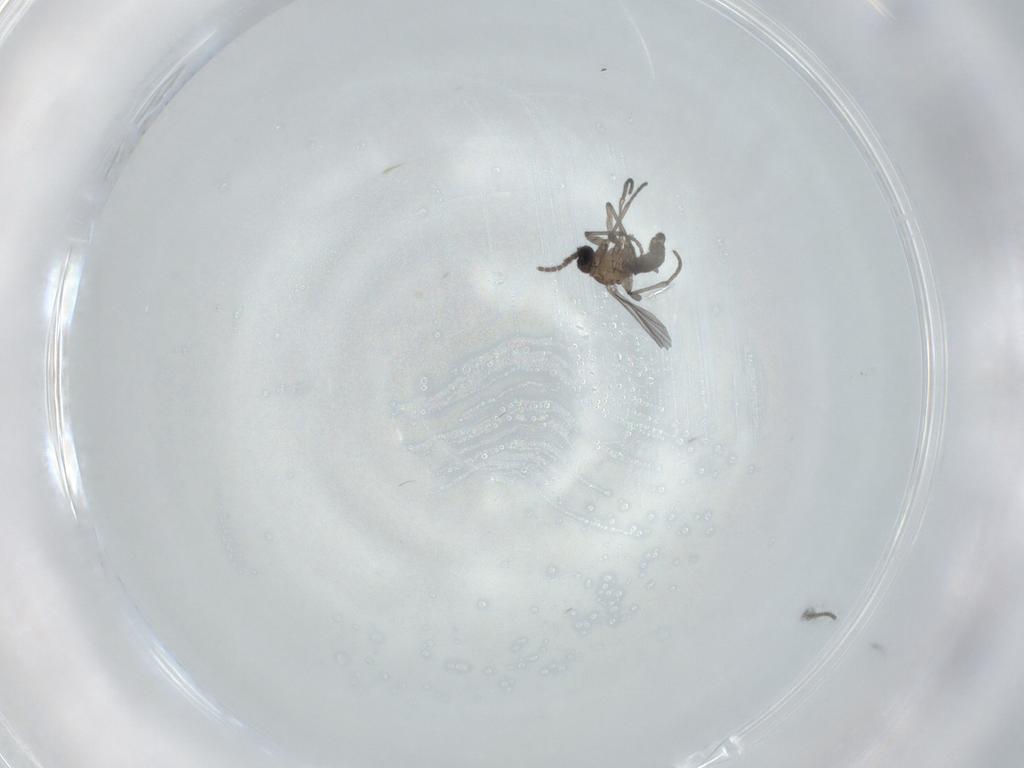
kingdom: Animalia
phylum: Arthropoda
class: Insecta
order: Diptera
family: Sciaridae
